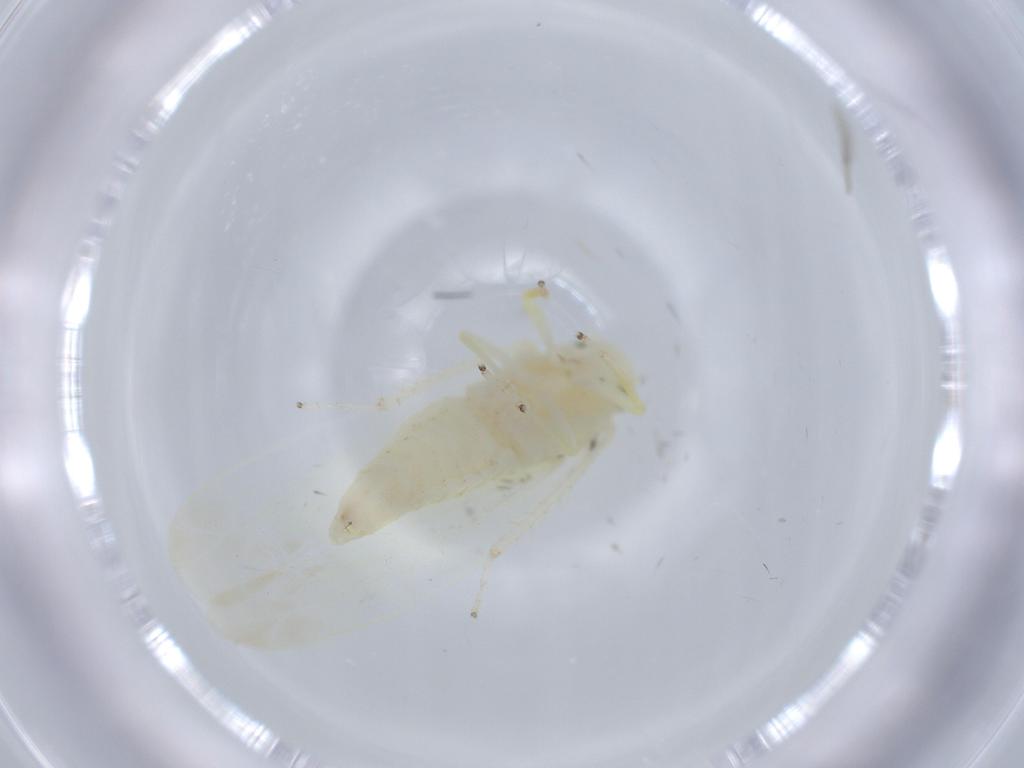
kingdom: Animalia
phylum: Arthropoda
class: Insecta
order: Hemiptera
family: Cicadellidae
